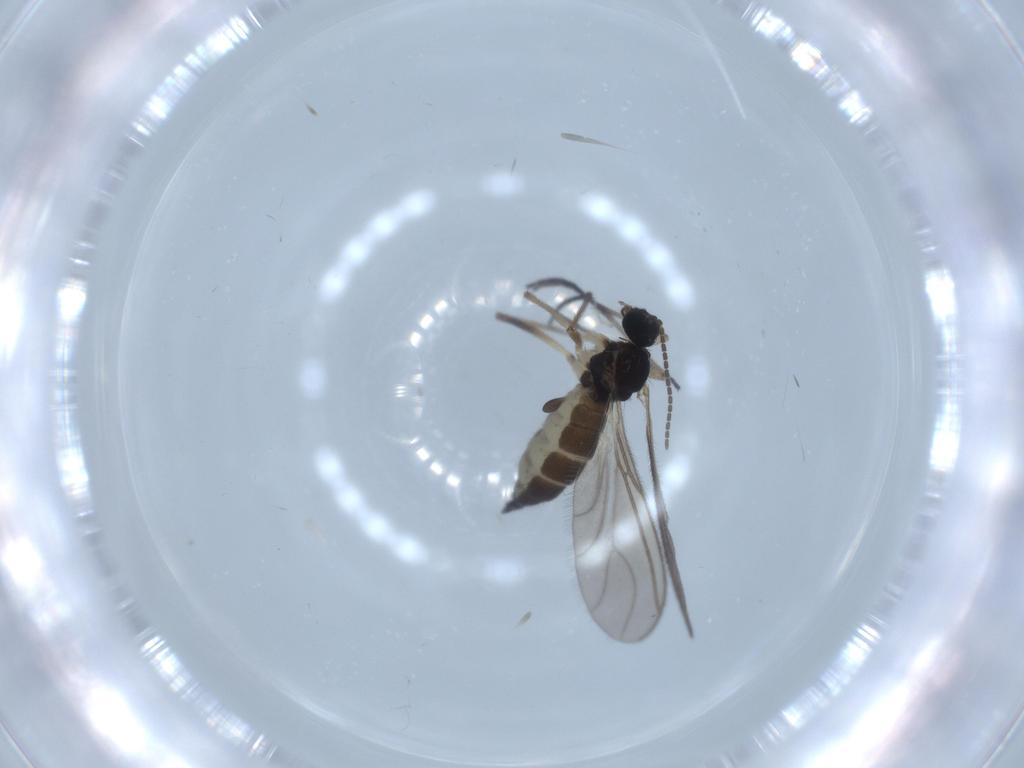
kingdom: Animalia
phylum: Arthropoda
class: Insecta
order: Diptera
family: Sciaridae
